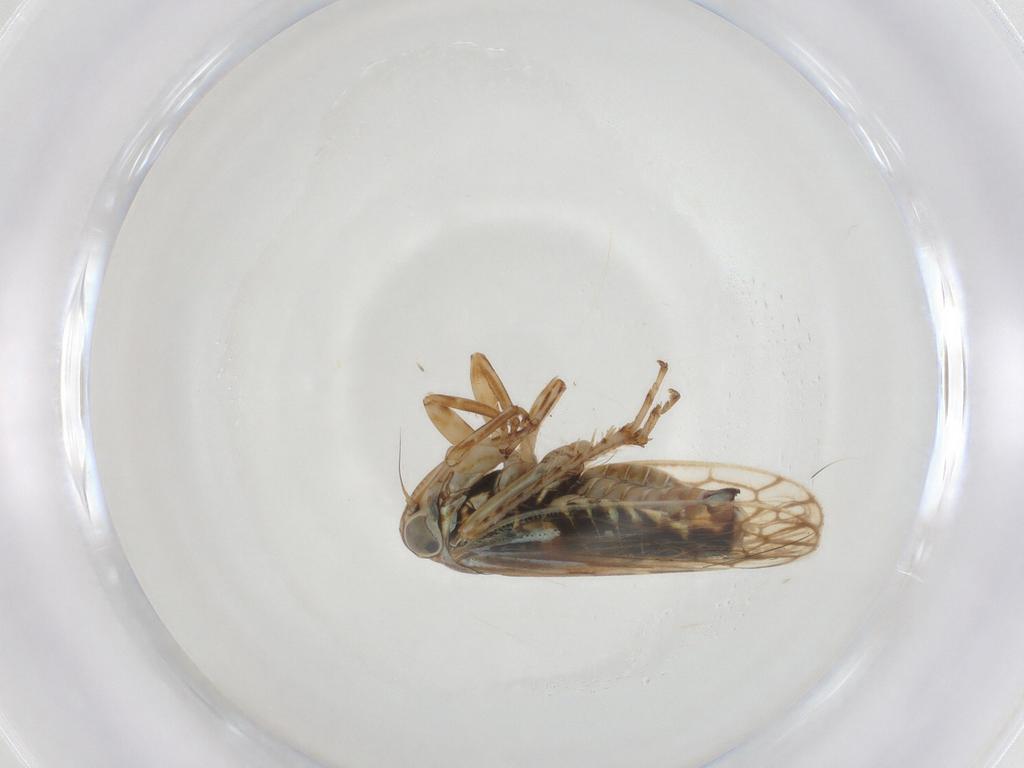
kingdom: Animalia
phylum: Arthropoda
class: Insecta
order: Hemiptera
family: Cicadellidae
